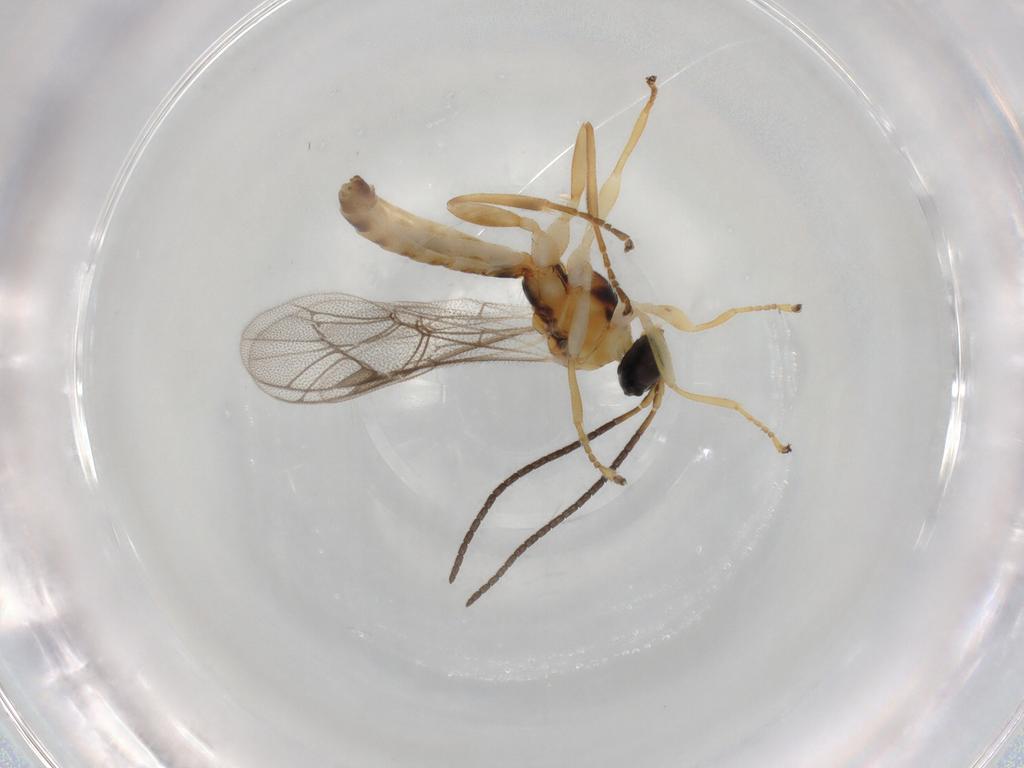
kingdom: Animalia
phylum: Arthropoda
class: Insecta
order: Hymenoptera
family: Ichneumonidae
